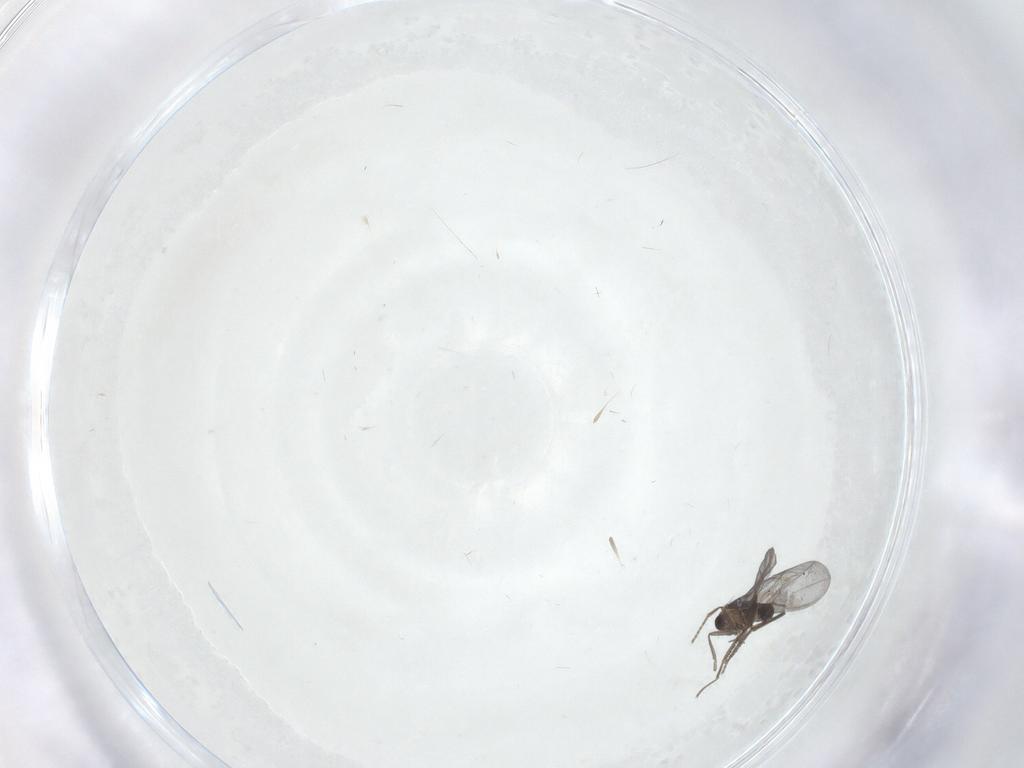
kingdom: Animalia
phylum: Arthropoda
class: Insecta
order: Diptera
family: Phoridae
